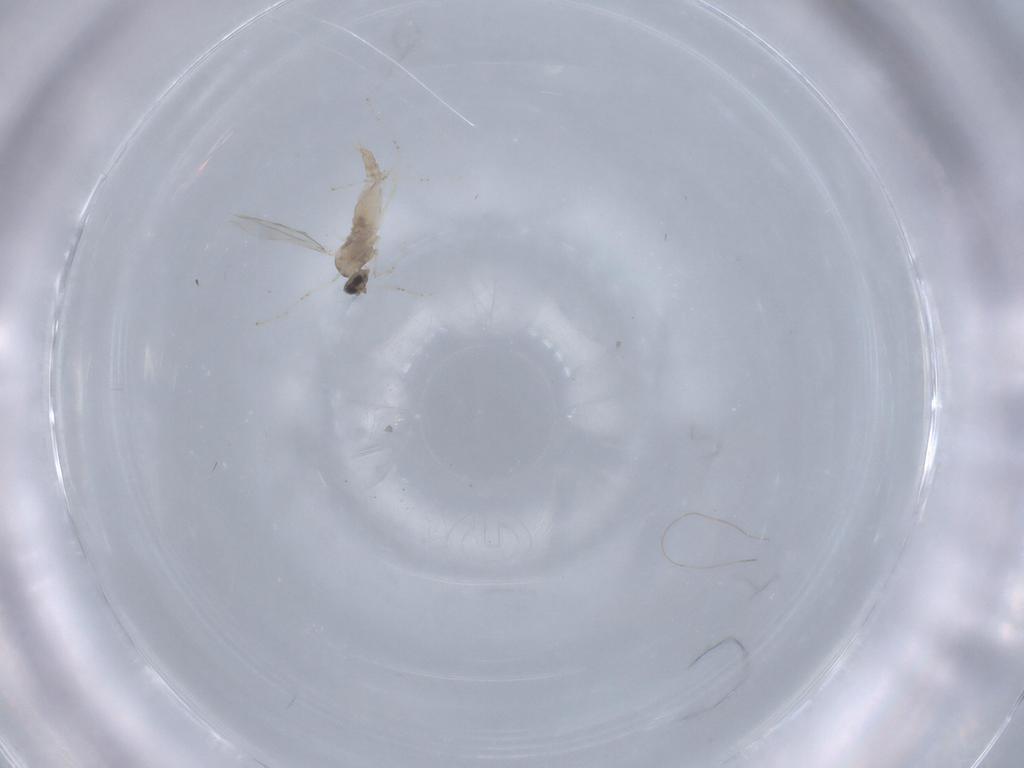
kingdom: Animalia
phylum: Arthropoda
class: Insecta
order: Diptera
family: Cecidomyiidae
